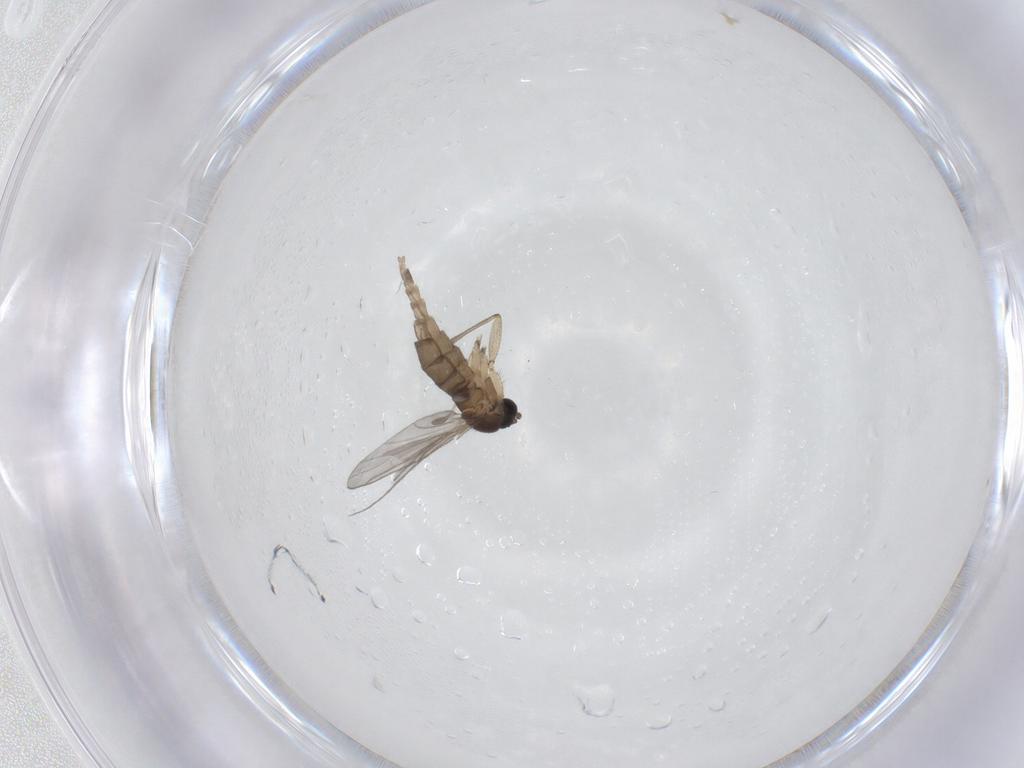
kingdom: Animalia
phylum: Arthropoda
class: Insecta
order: Diptera
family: Sciaridae
